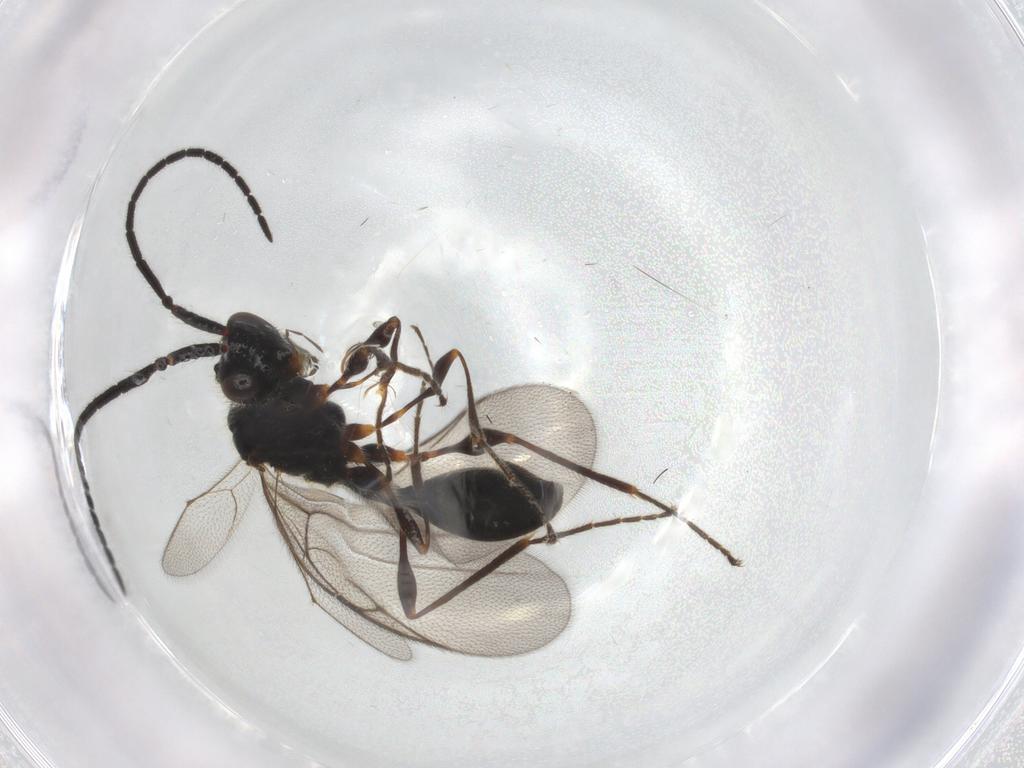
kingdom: Animalia
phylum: Arthropoda
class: Insecta
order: Hymenoptera
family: Diapriidae
